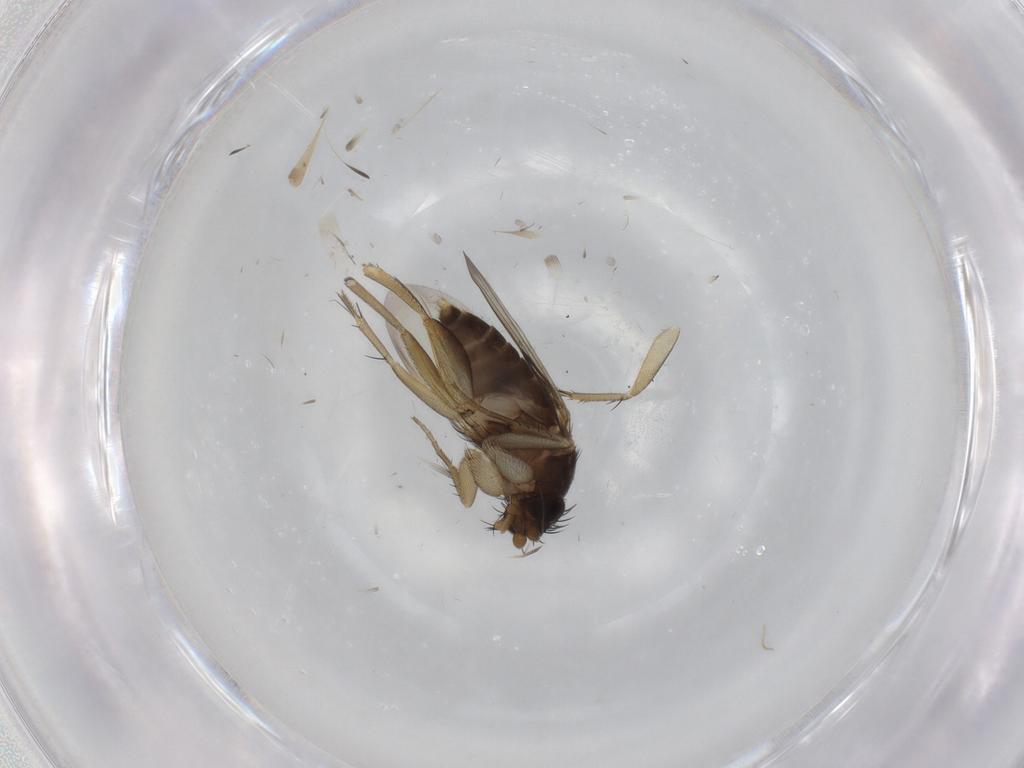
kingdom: Animalia
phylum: Arthropoda
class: Insecta
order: Diptera
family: Phoridae
